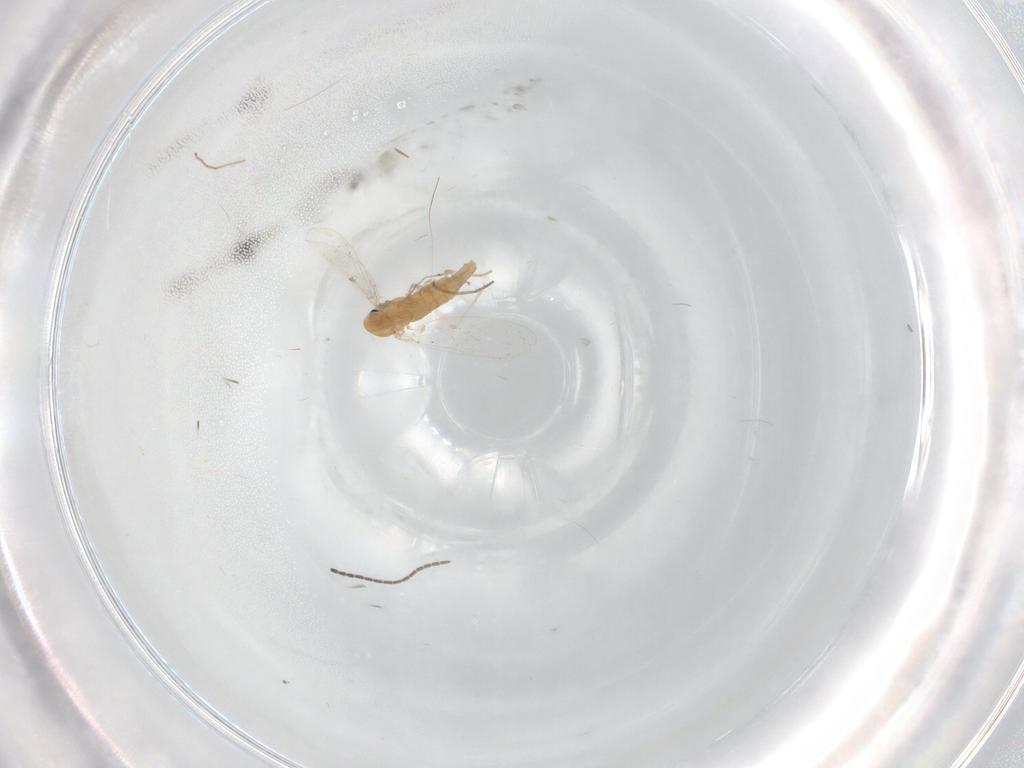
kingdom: Animalia
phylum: Arthropoda
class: Insecta
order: Diptera
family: Chironomidae
